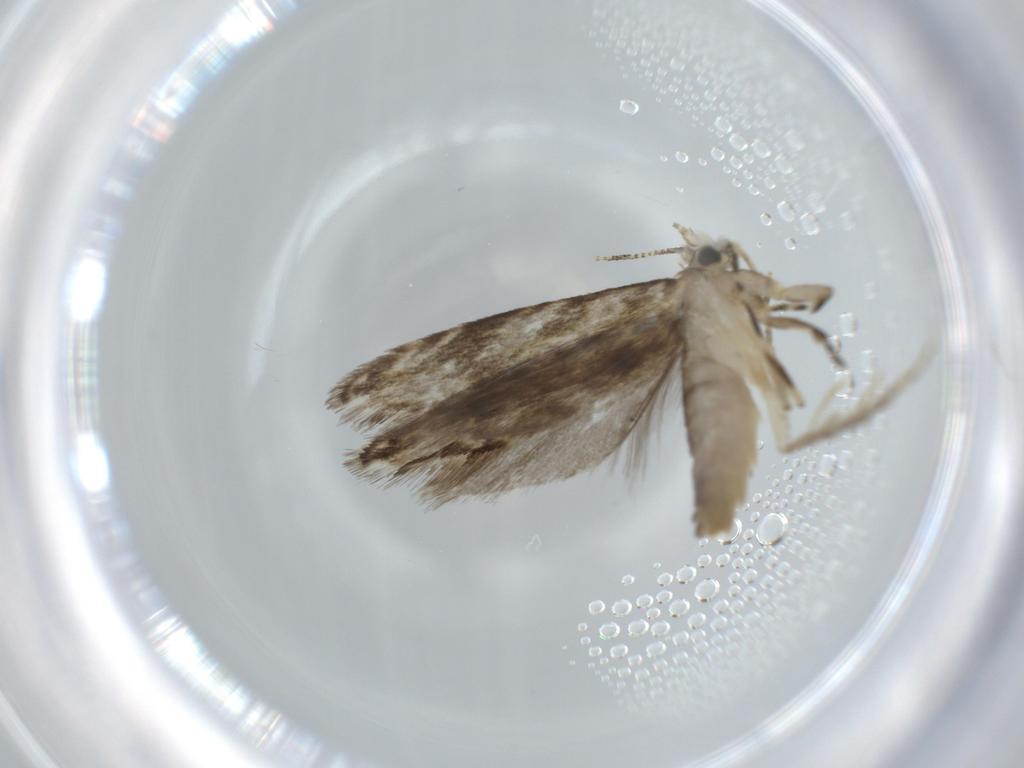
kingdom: Animalia
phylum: Arthropoda
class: Insecta
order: Lepidoptera
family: Tineidae
